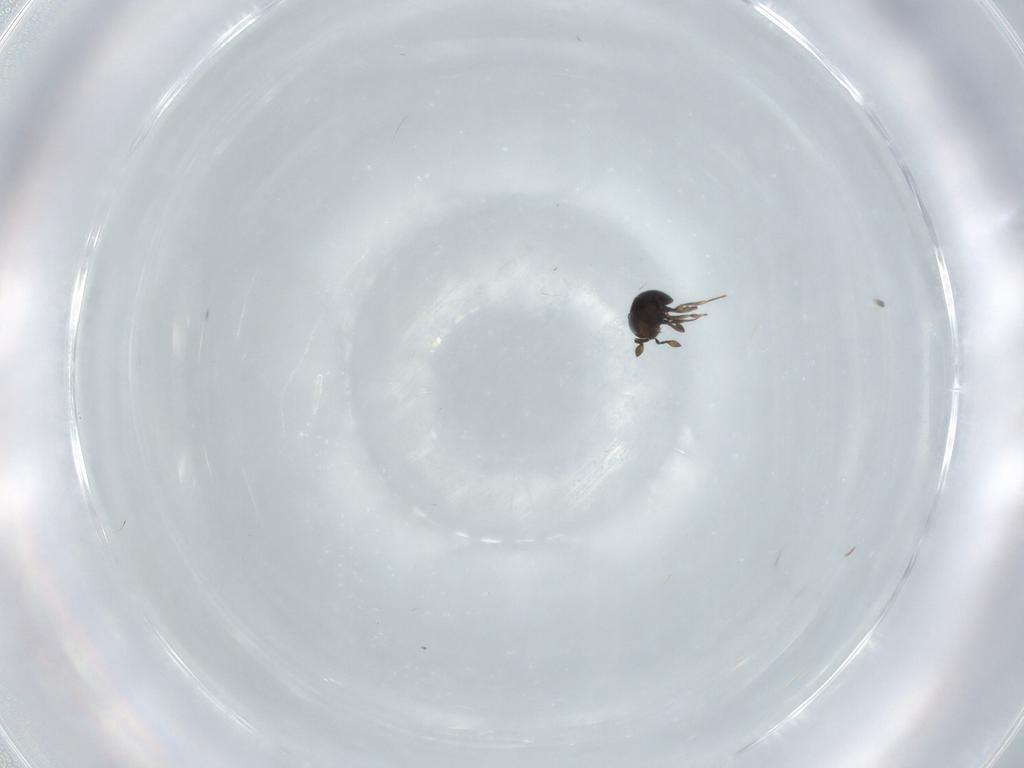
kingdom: Animalia
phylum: Arthropoda
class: Insecta
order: Hymenoptera
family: Scelionidae
